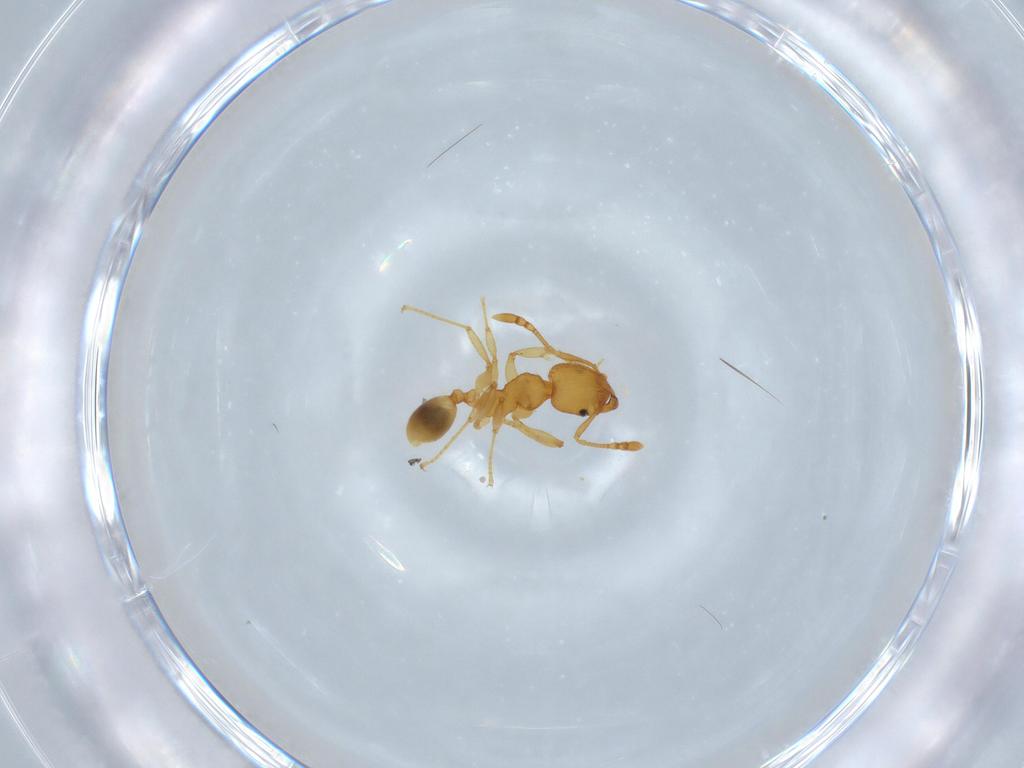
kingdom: Animalia
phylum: Arthropoda
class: Insecta
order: Hymenoptera
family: Formicidae
